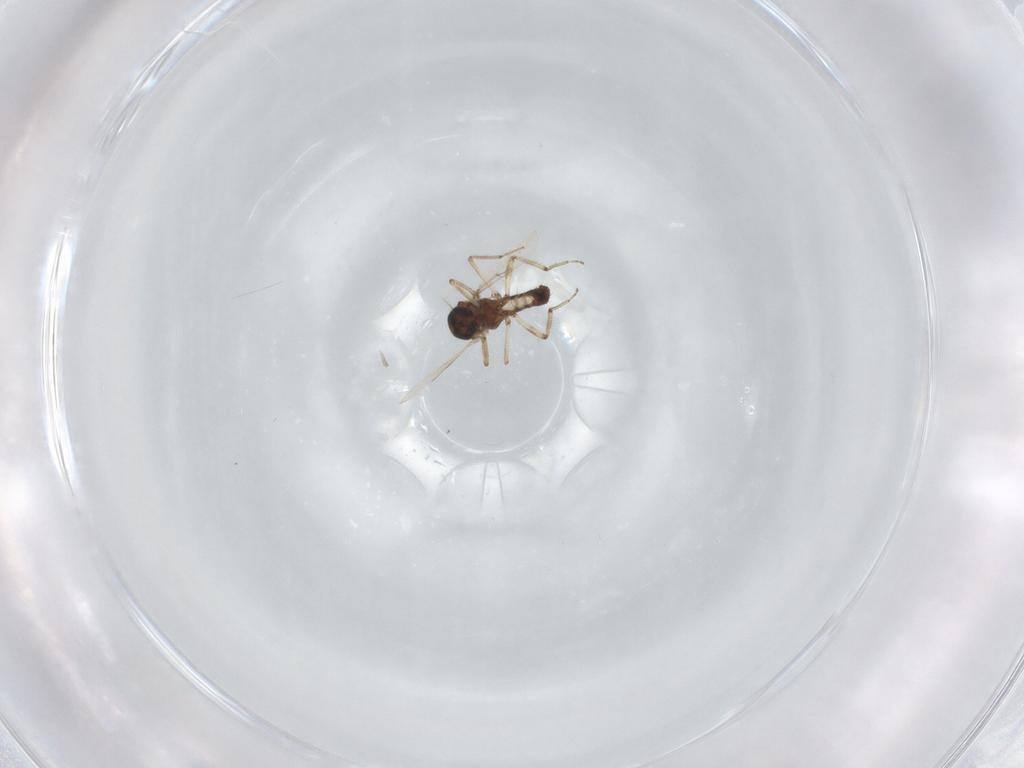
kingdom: Animalia
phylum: Arthropoda
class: Insecta
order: Diptera
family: Ceratopogonidae
